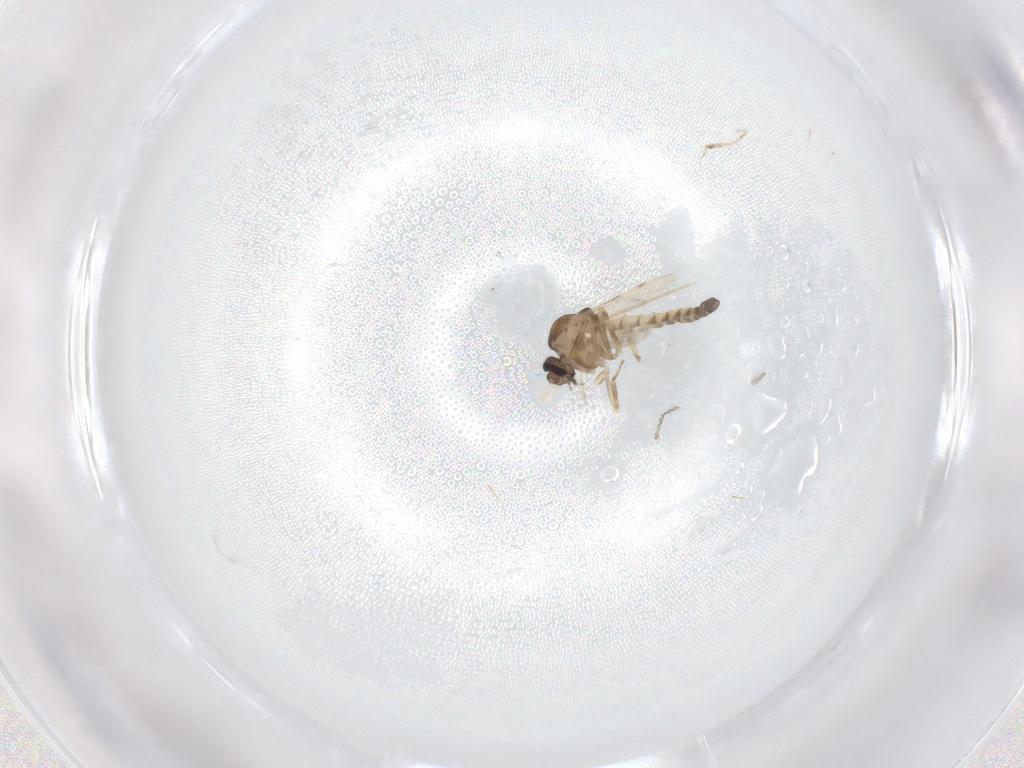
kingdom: Animalia
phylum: Arthropoda
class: Insecta
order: Diptera
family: Ceratopogonidae
